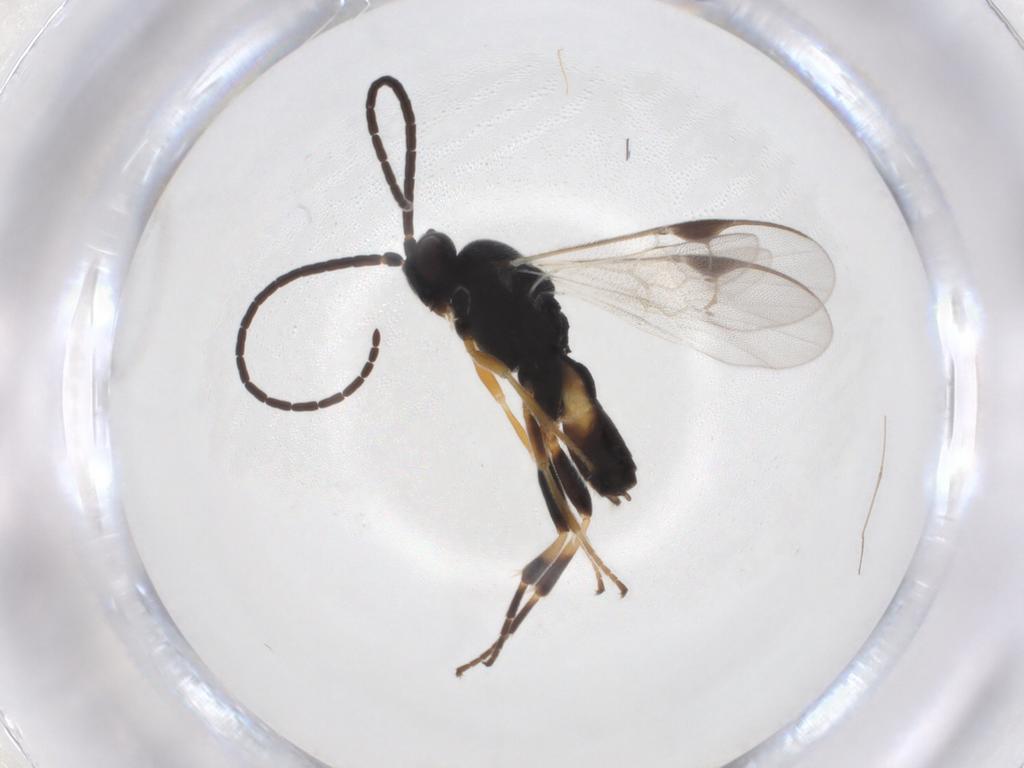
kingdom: Animalia
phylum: Arthropoda
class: Insecta
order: Hymenoptera
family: Braconidae
